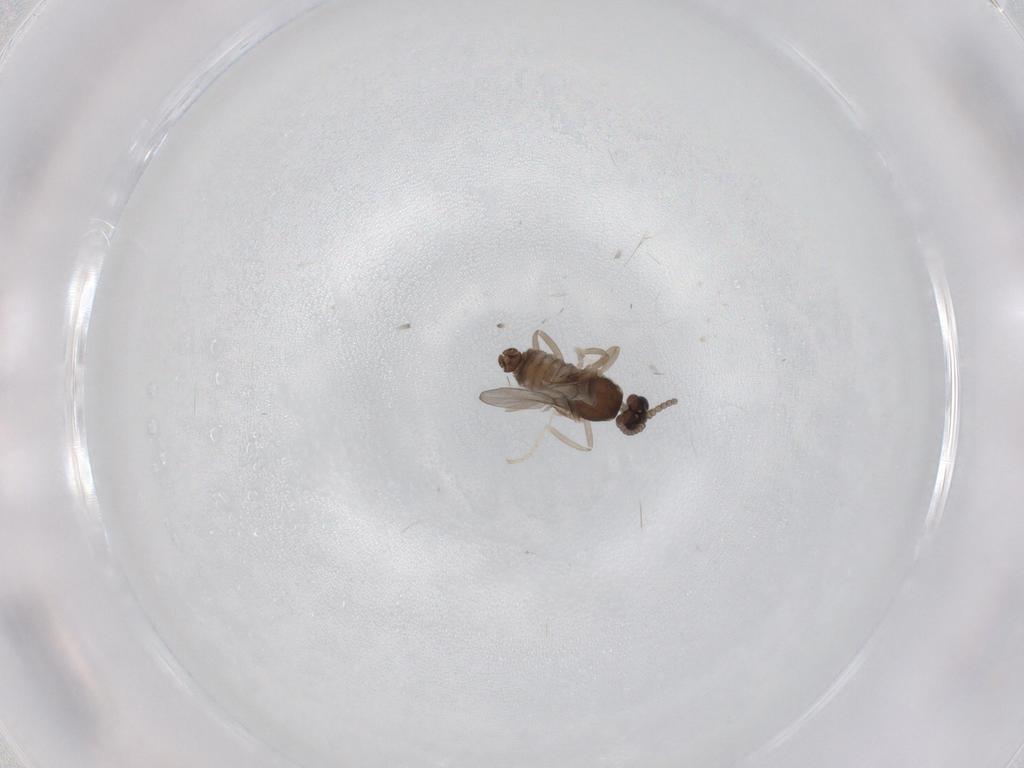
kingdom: Animalia
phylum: Arthropoda
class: Insecta
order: Diptera
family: Cecidomyiidae
